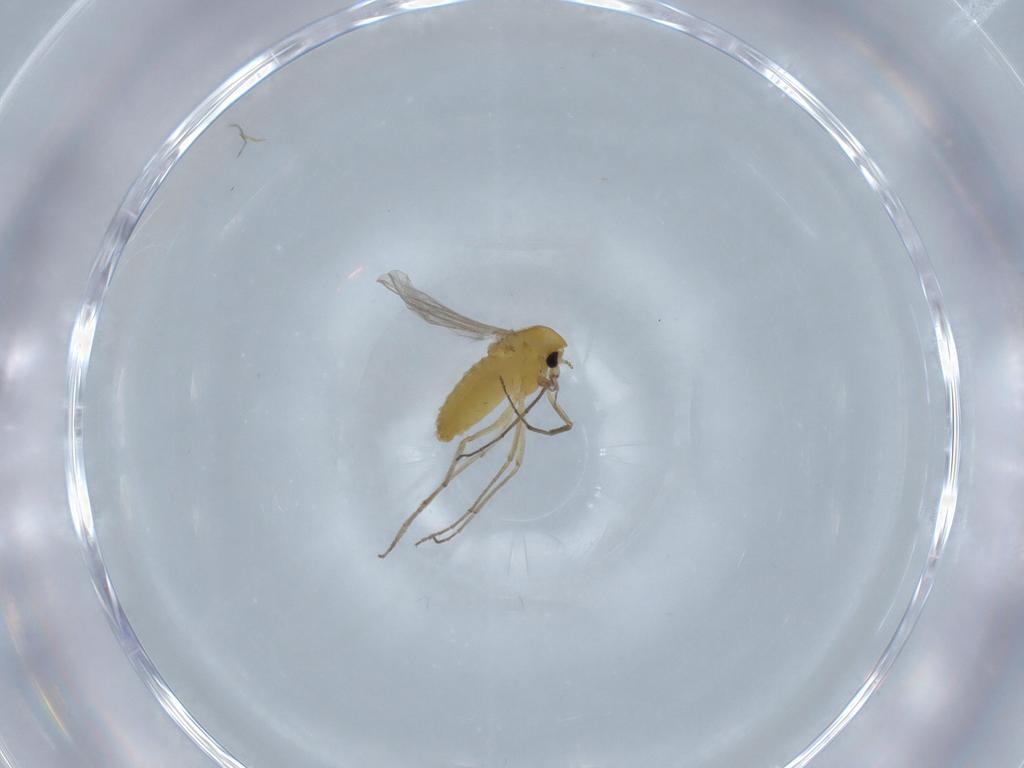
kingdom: Animalia
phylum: Arthropoda
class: Insecta
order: Diptera
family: Chironomidae
